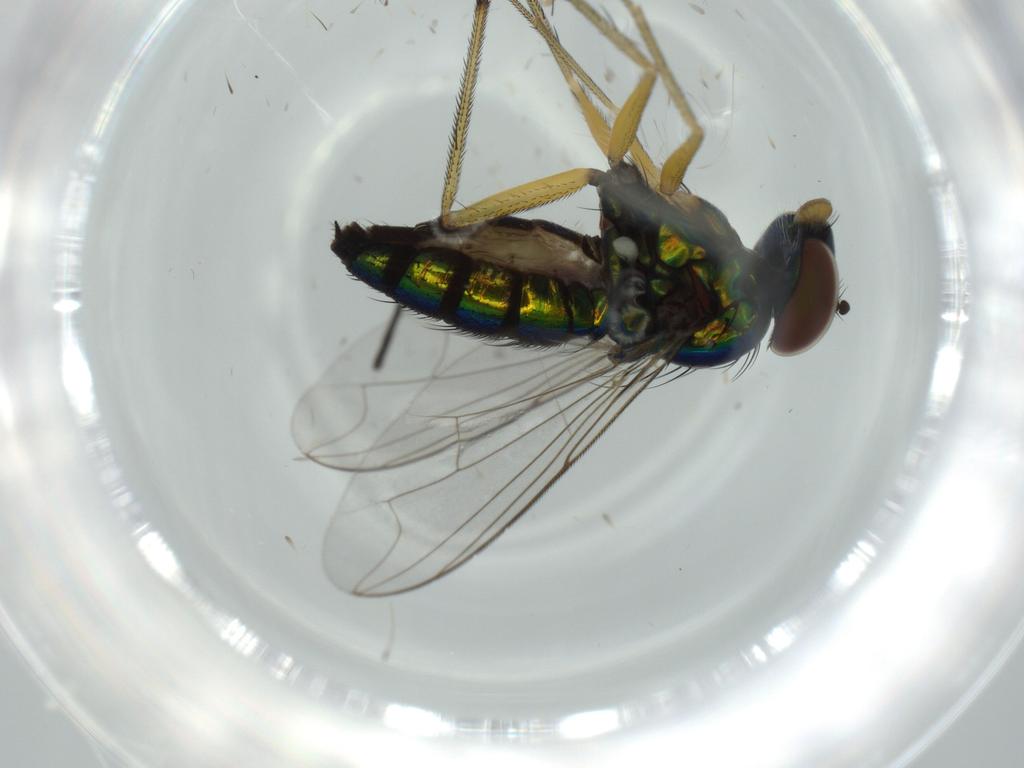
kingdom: Animalia
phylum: Arthropoda
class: Insecta
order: Diptera
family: Dolichopodidae
